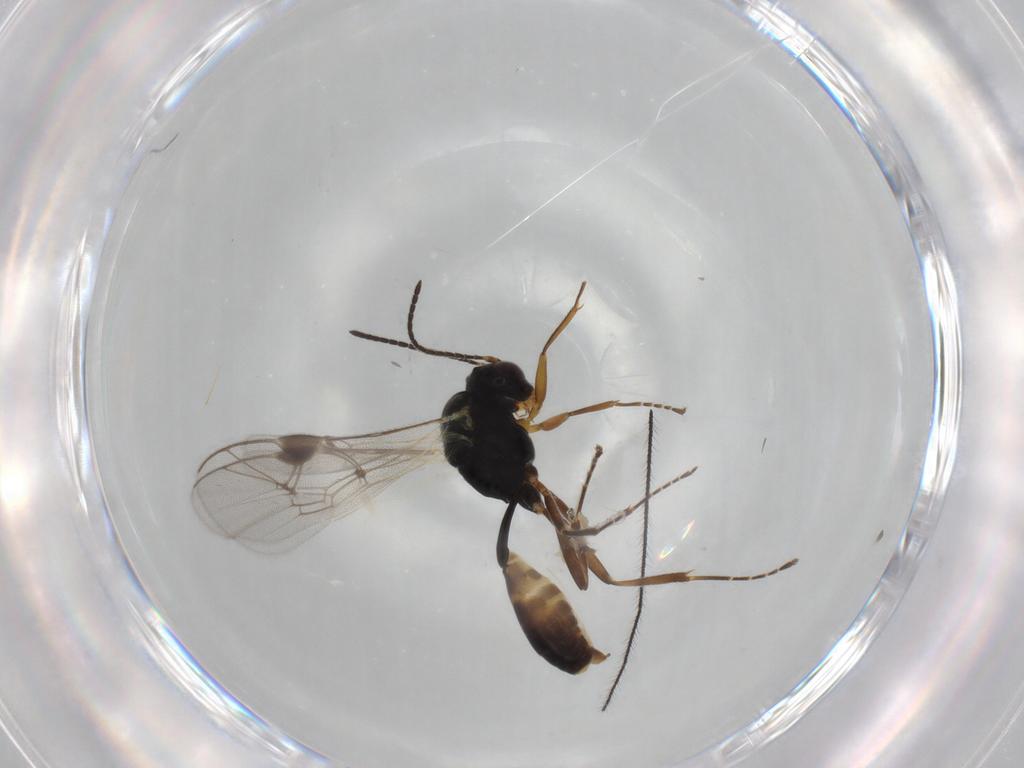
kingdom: Animalia
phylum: Arthropoda
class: Insecta
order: Hymenoptera
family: Ichneumonidae
